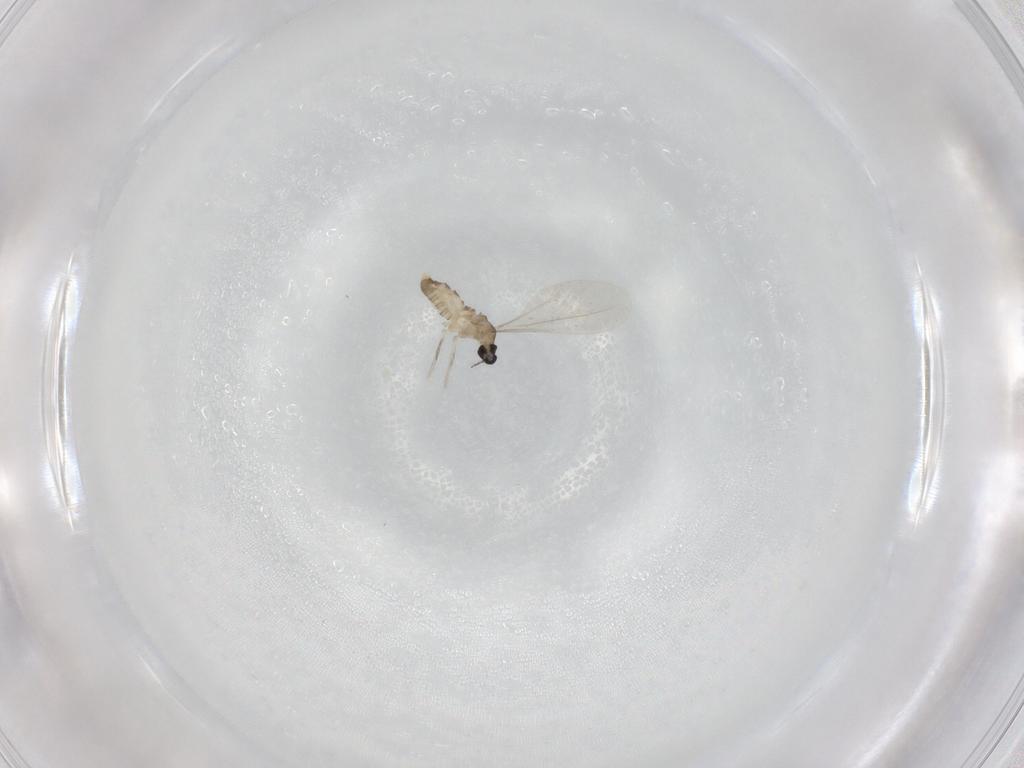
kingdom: Animalia
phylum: Arthropoda
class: Insecta
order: Diptera
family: Cecidomyiidae
